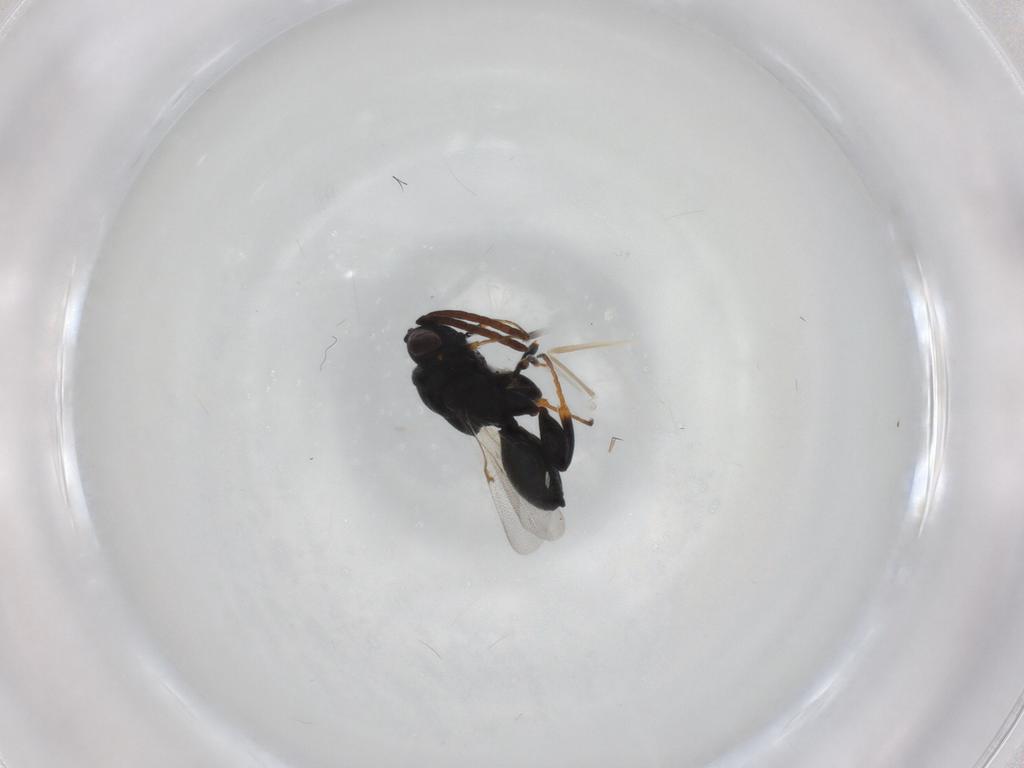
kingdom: Animalia
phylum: Arthropoda
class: Insecta
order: Hymenoptera
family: Chalcididae
